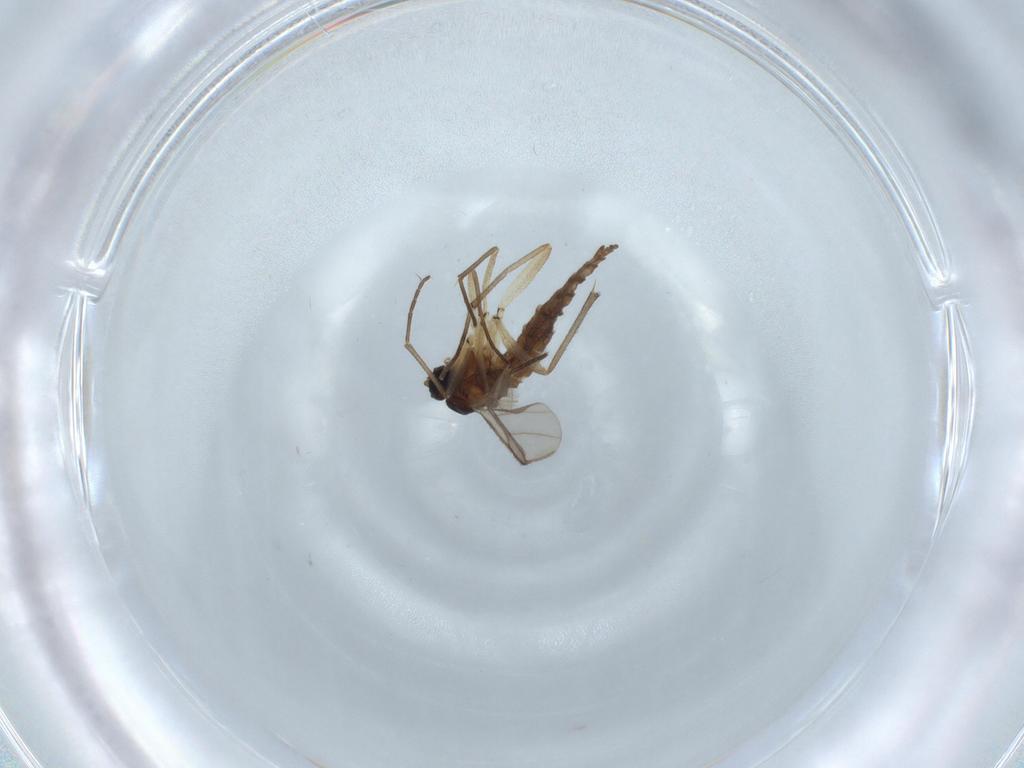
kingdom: Animalia
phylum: Arthropoda
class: Insecta
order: Diptera
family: Sciaridae
